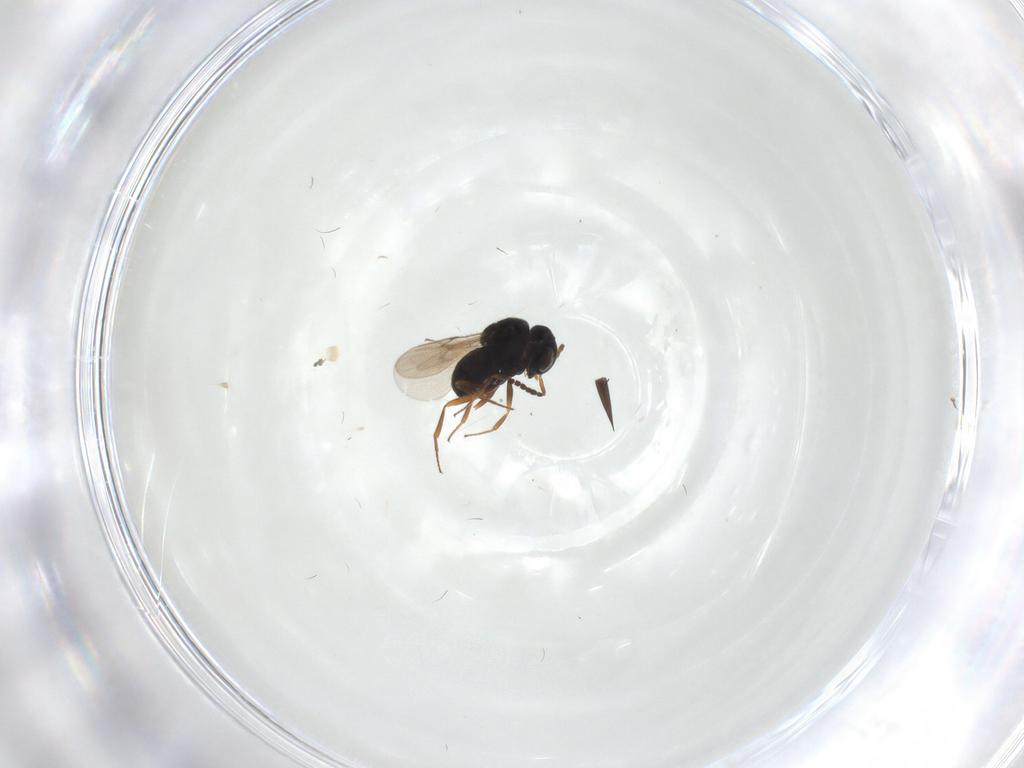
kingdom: Animalia
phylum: Arthropoda
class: Insecta
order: Hymenoptera
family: Scelionidae
